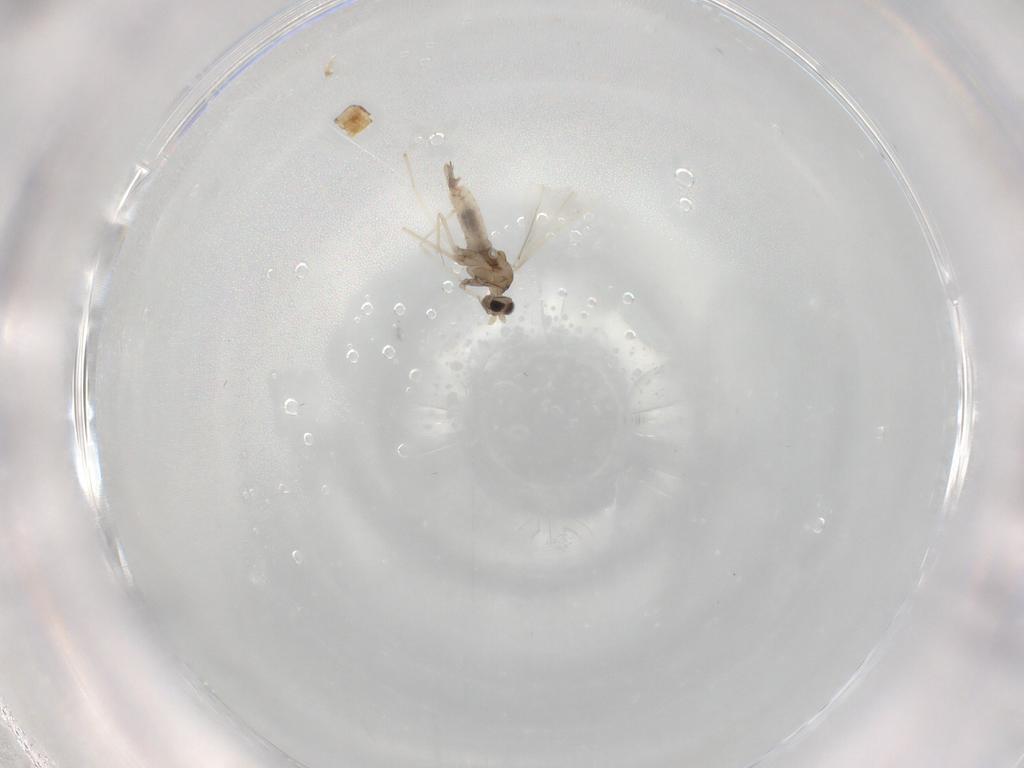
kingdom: Animalia
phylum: Arthropoda
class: Insecta
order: Diptera
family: Cecidomyiidae
